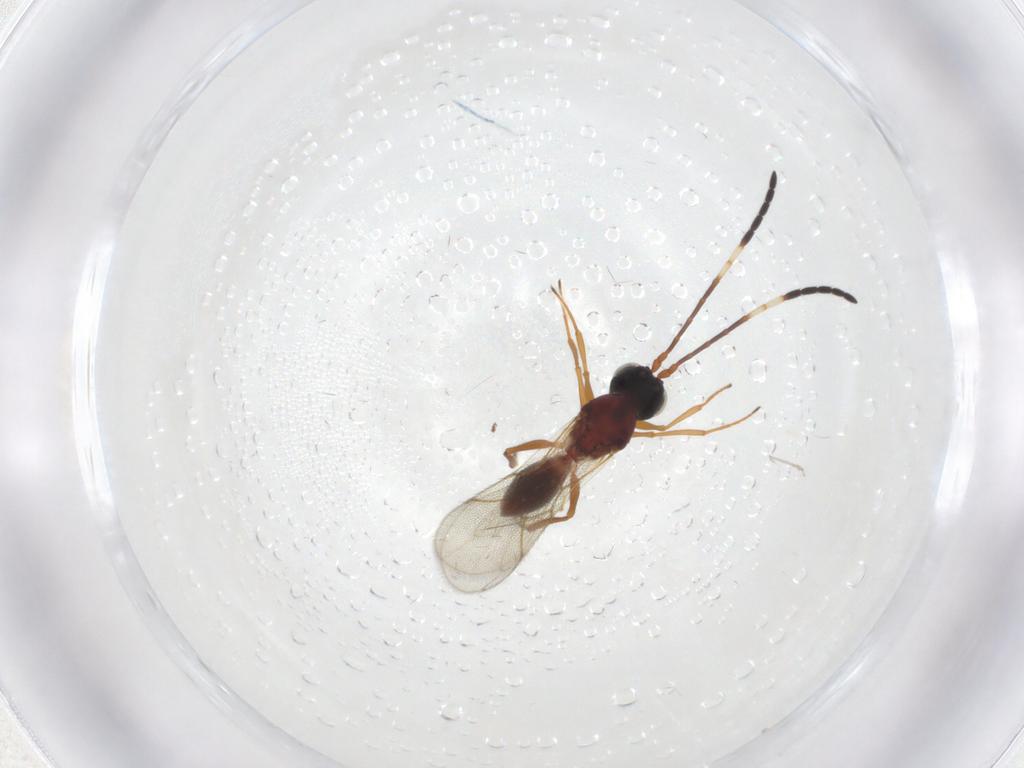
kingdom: Animalia
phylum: Arthropoda
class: Insecta
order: Hymenoptera
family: Figitidae
